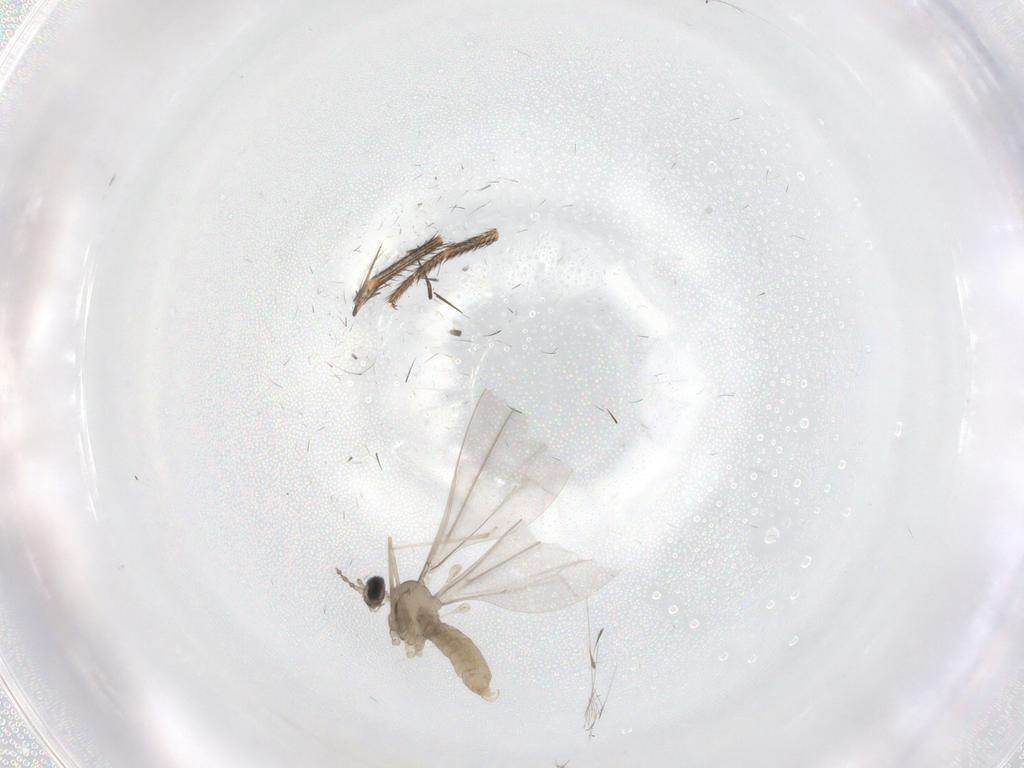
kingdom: Animalia
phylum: Arthropoda
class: Insecta
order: Diptera
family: Cecidomyiidae
